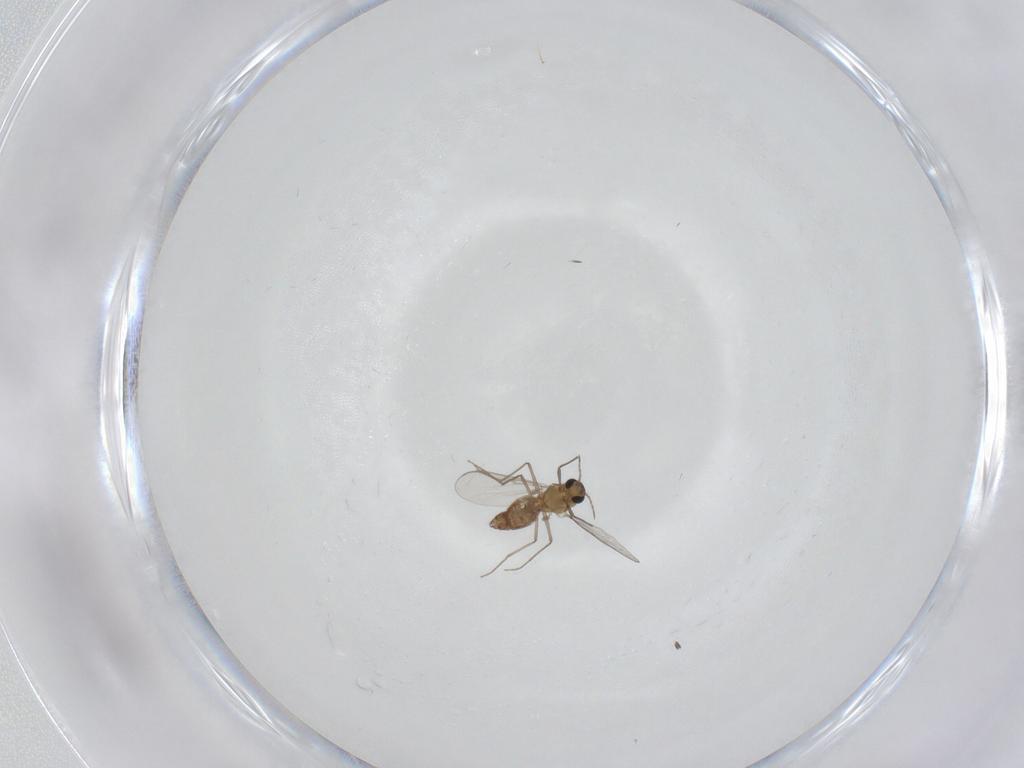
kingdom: Animalia
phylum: Arthropoda
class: Insecta
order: Diptera
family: Chironomidae
